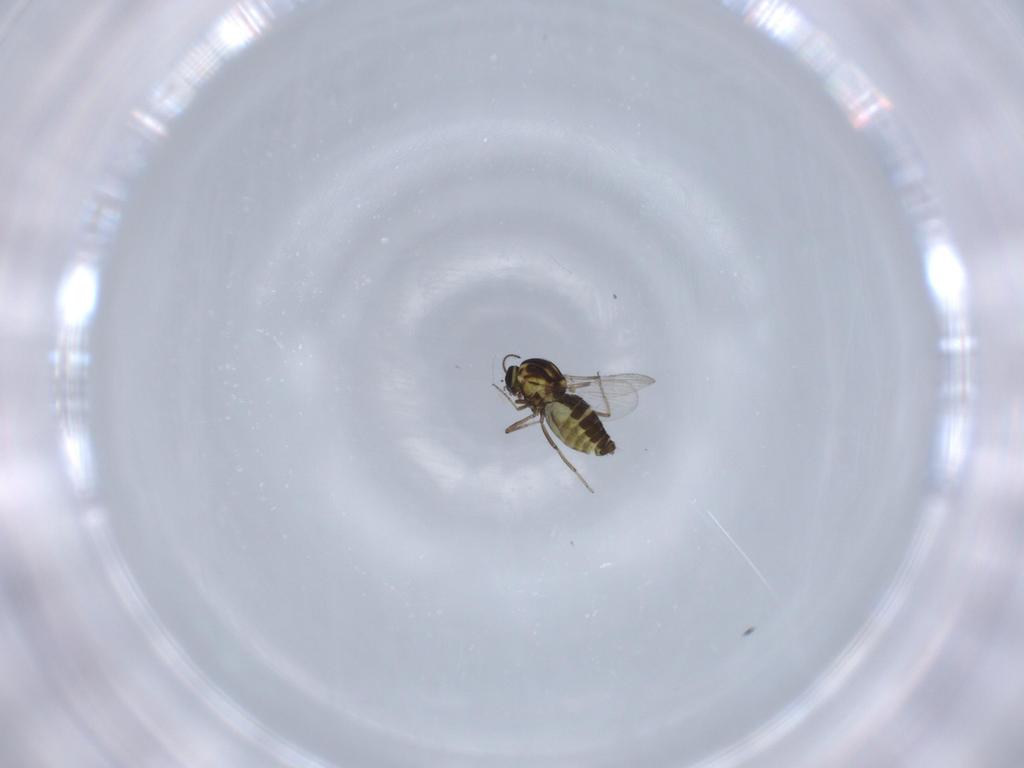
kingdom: Animalia
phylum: Arthropoda
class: Insecta
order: Diptera
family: Ceratopogonidae
